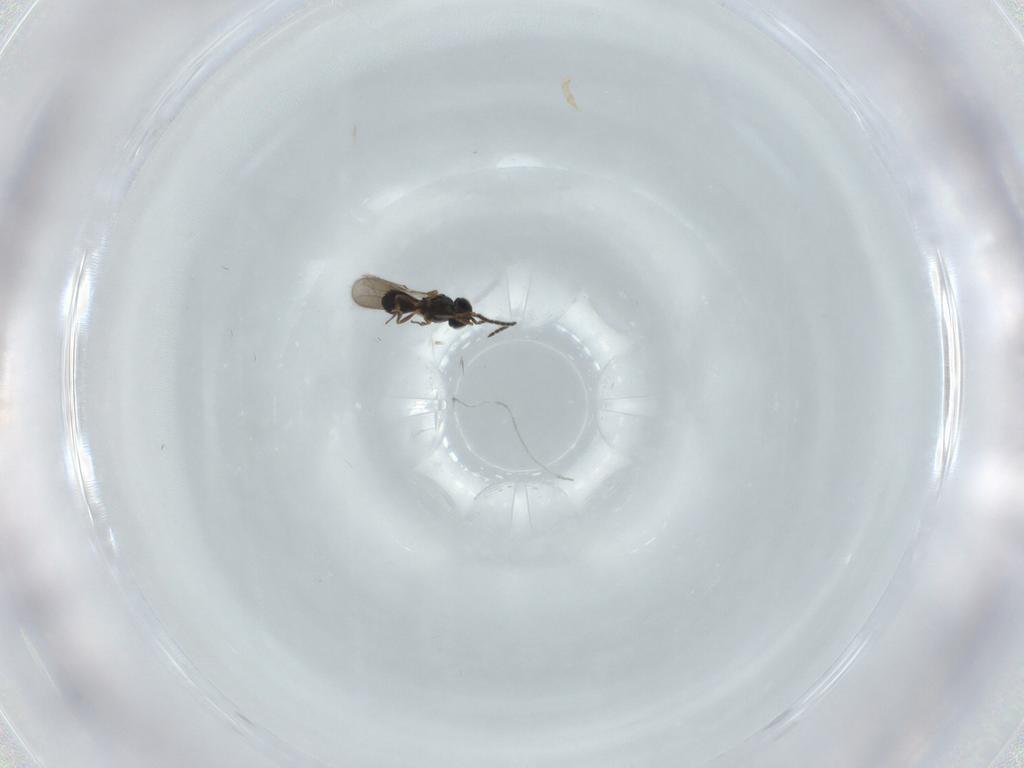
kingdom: Animalia
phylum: Arthropoda
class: Insecta
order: Hymenoptera
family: Scelionidae
